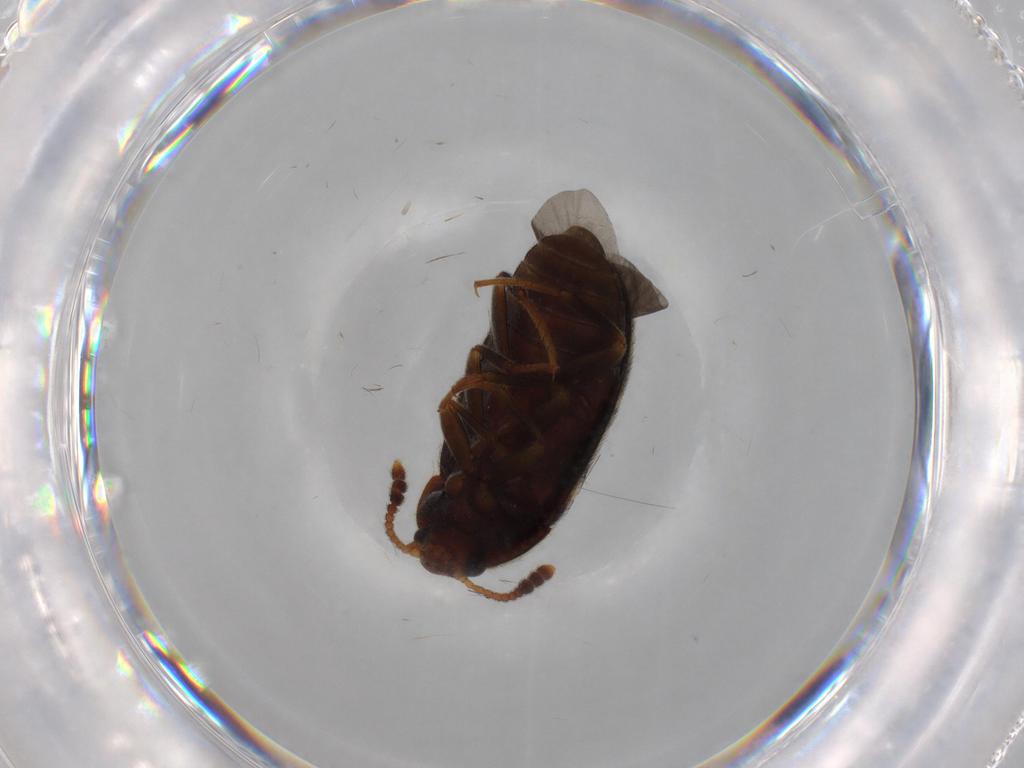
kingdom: Animalia
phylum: Arthropoda
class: Insecta
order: Coleoptera
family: Mycetophagidae
